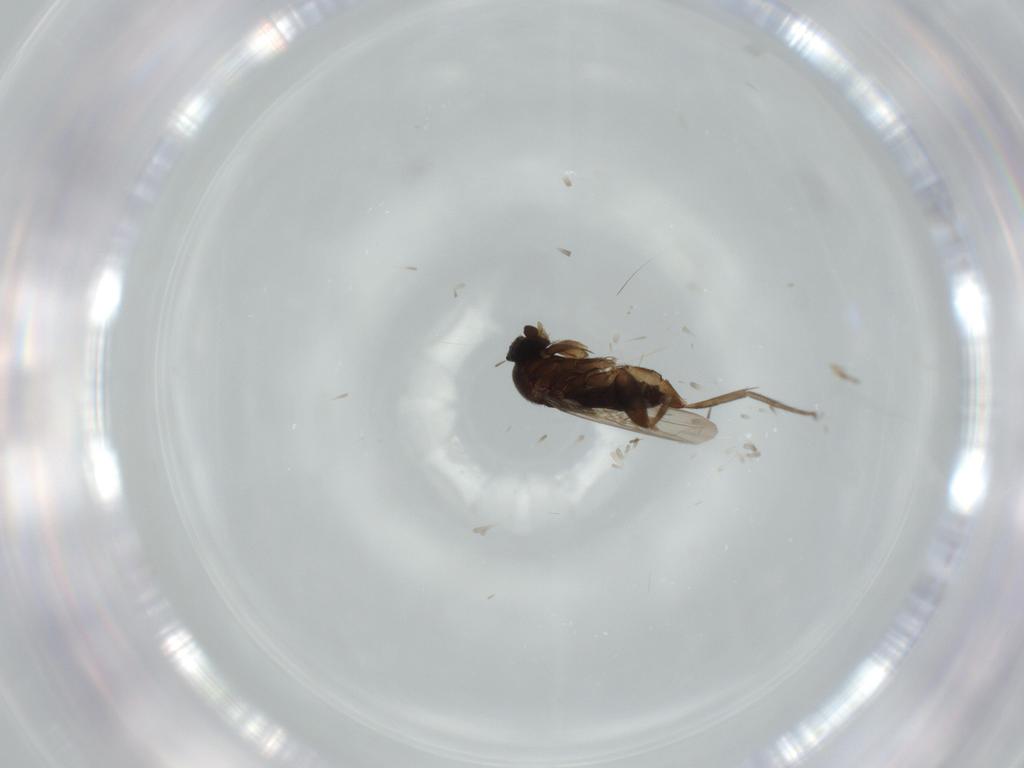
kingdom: Animalia
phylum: Arthropoda
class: Insecta
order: Diptera
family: Phoridae
